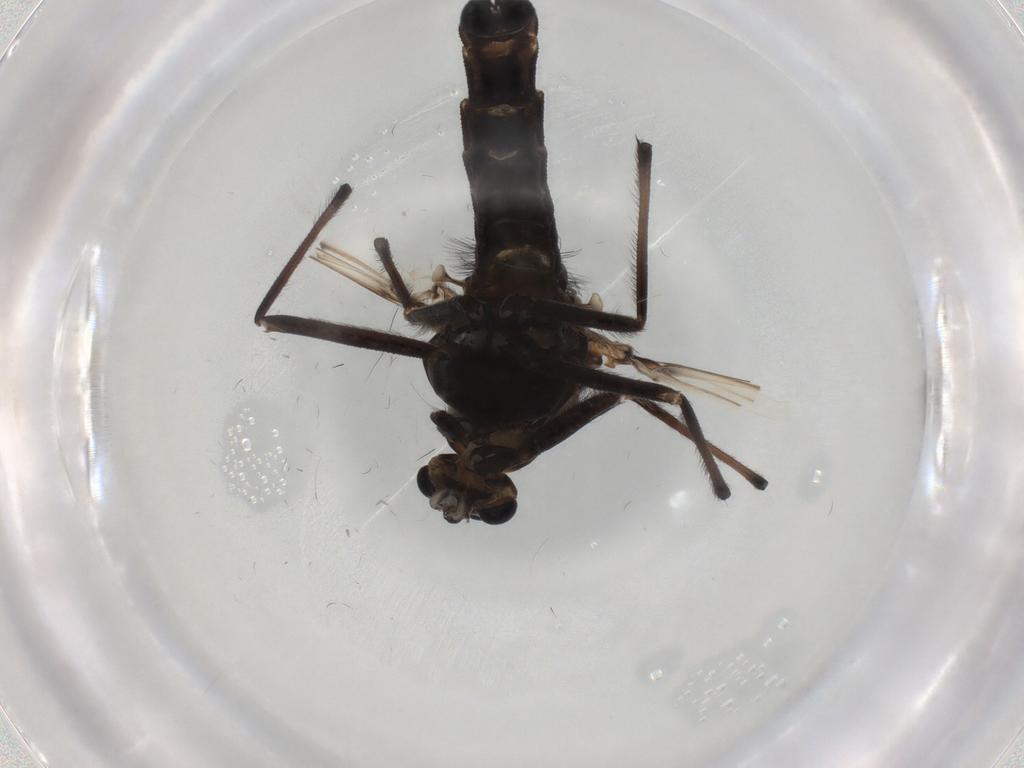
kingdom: Animalia
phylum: Arthropoda
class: Insecta
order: Diptera
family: Chironomidae
